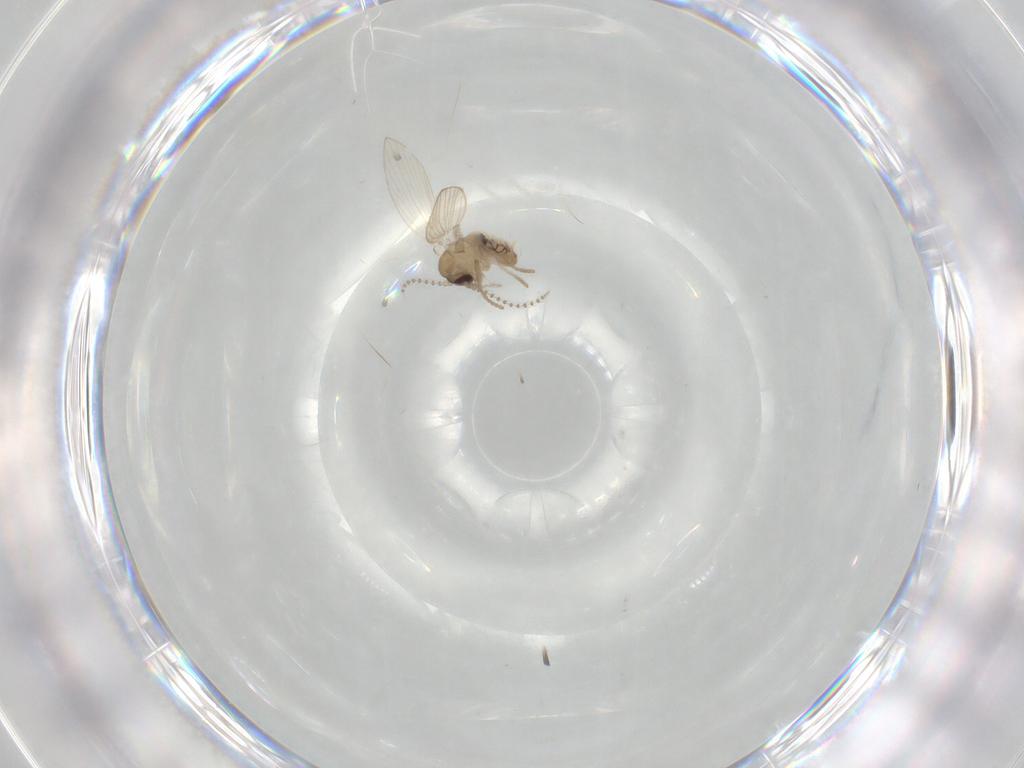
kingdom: Animalia
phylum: Arthropoda
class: Insecta
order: Diptera
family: Psychodidae
